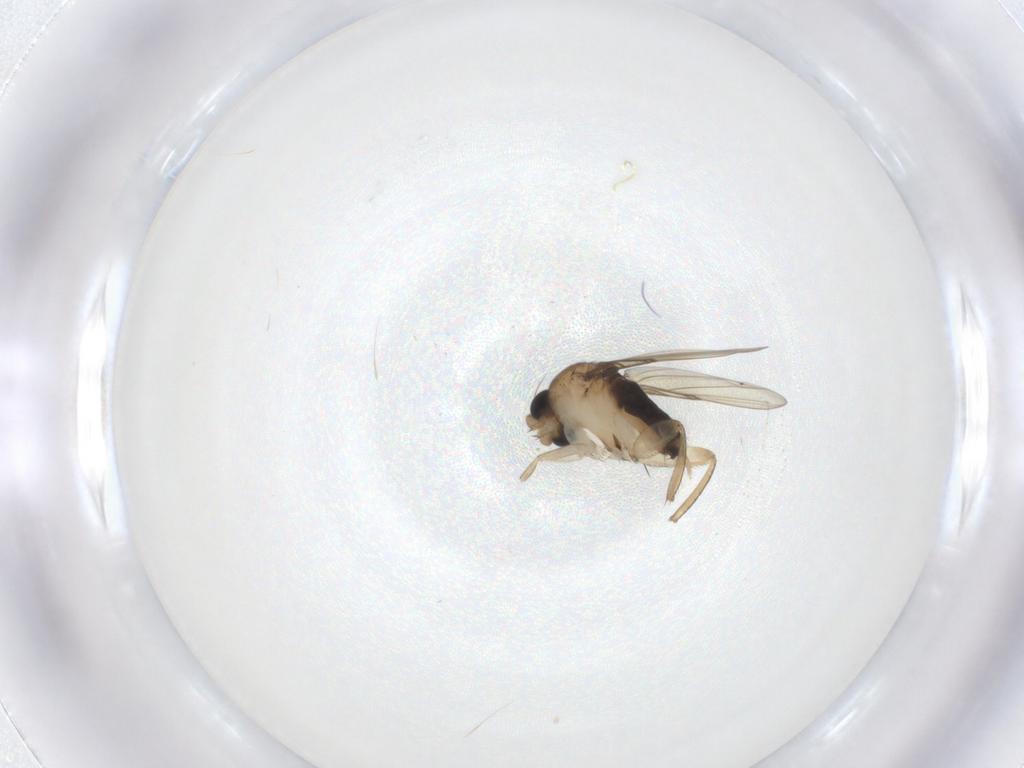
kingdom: Animalia
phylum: Arthropoda
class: Insecta
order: Diptera
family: Phoridae
